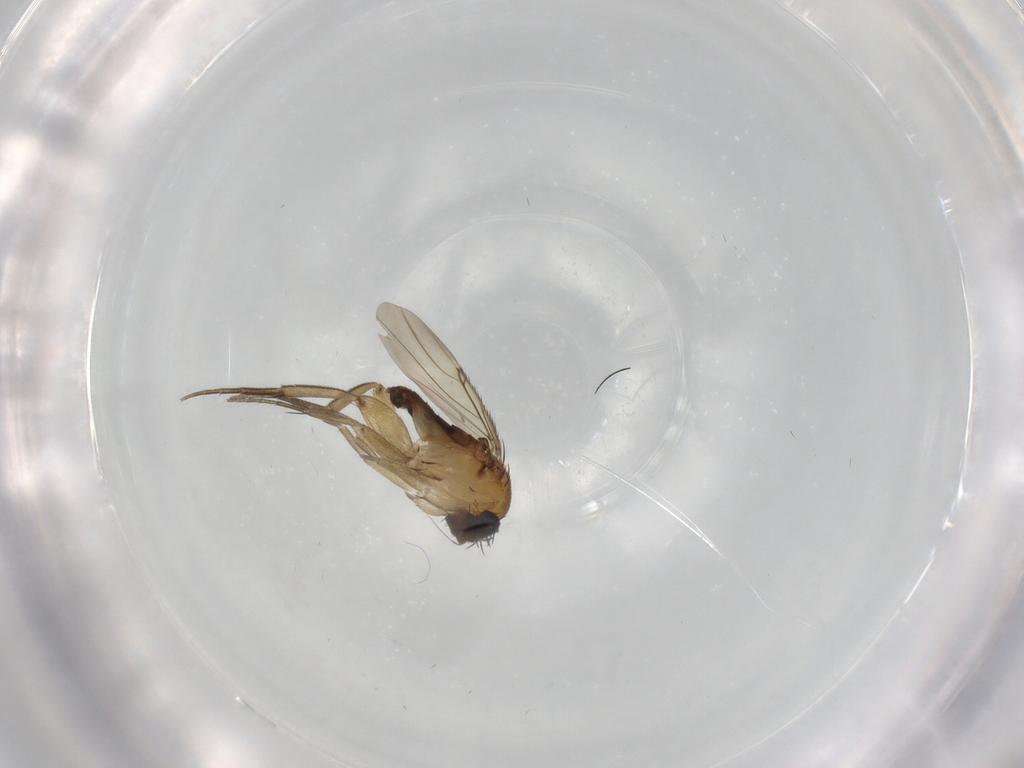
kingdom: Animalia
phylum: Arthropoda
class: Insecta
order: Diptera
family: Phoridae
